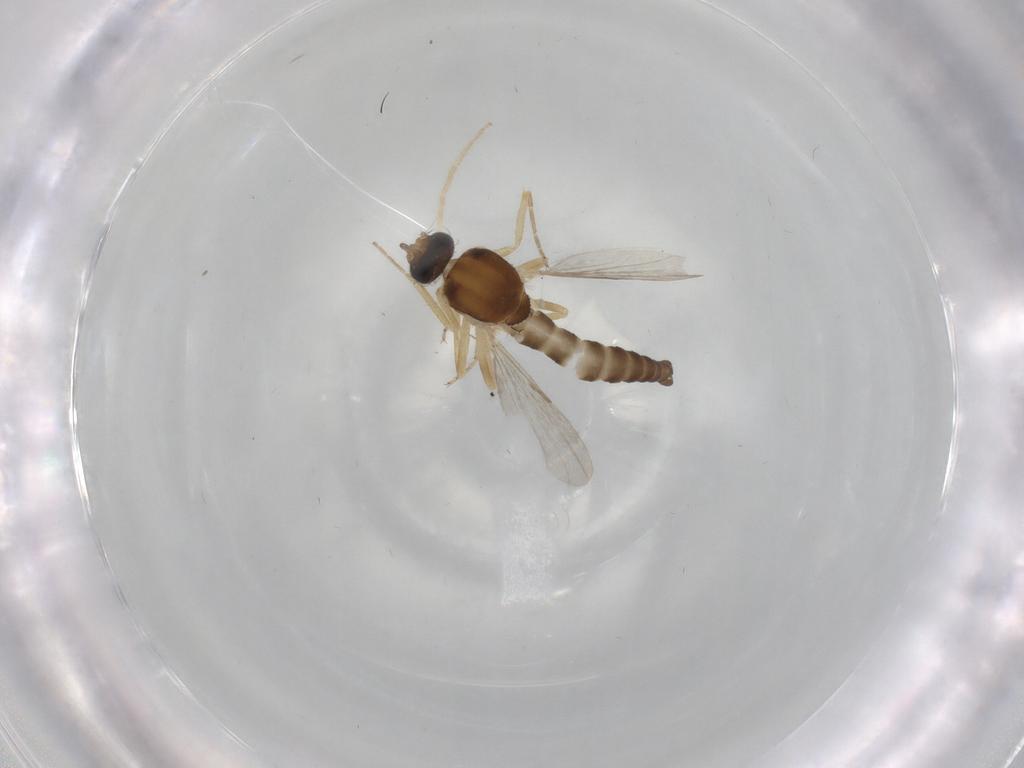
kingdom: Animalia
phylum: Arthropoda
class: Insecta
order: Diptera
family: Ceratopogonidae
